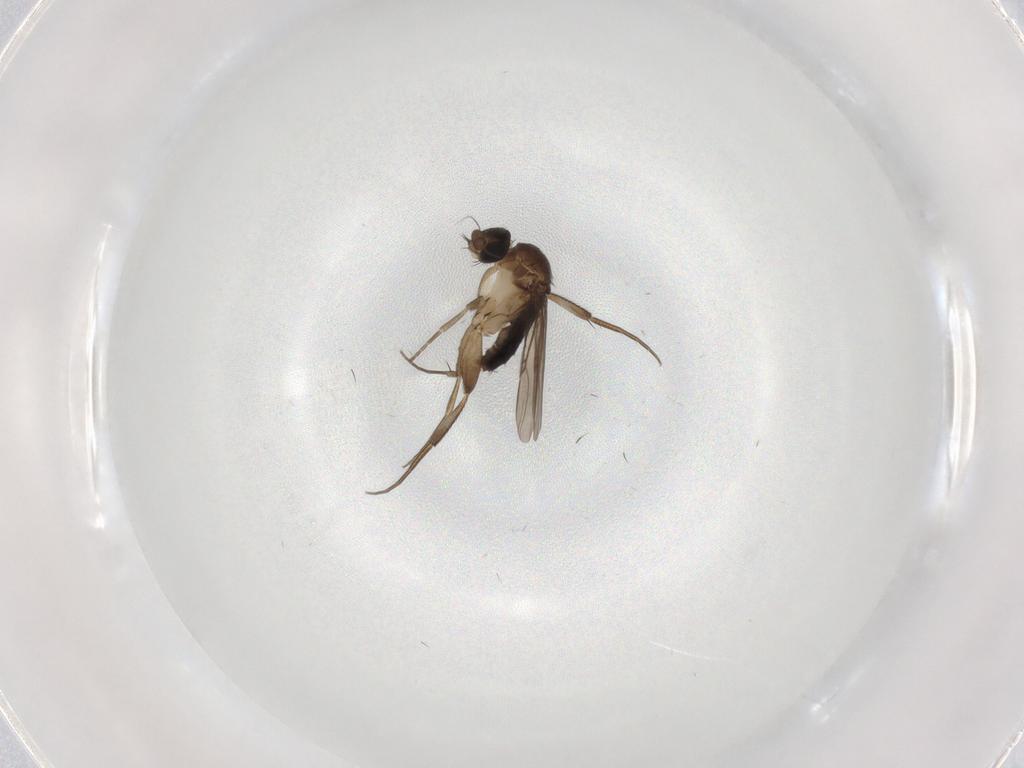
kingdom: Animalia
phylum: Arthropoda
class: Insecta
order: Diptera
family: Phoridae
